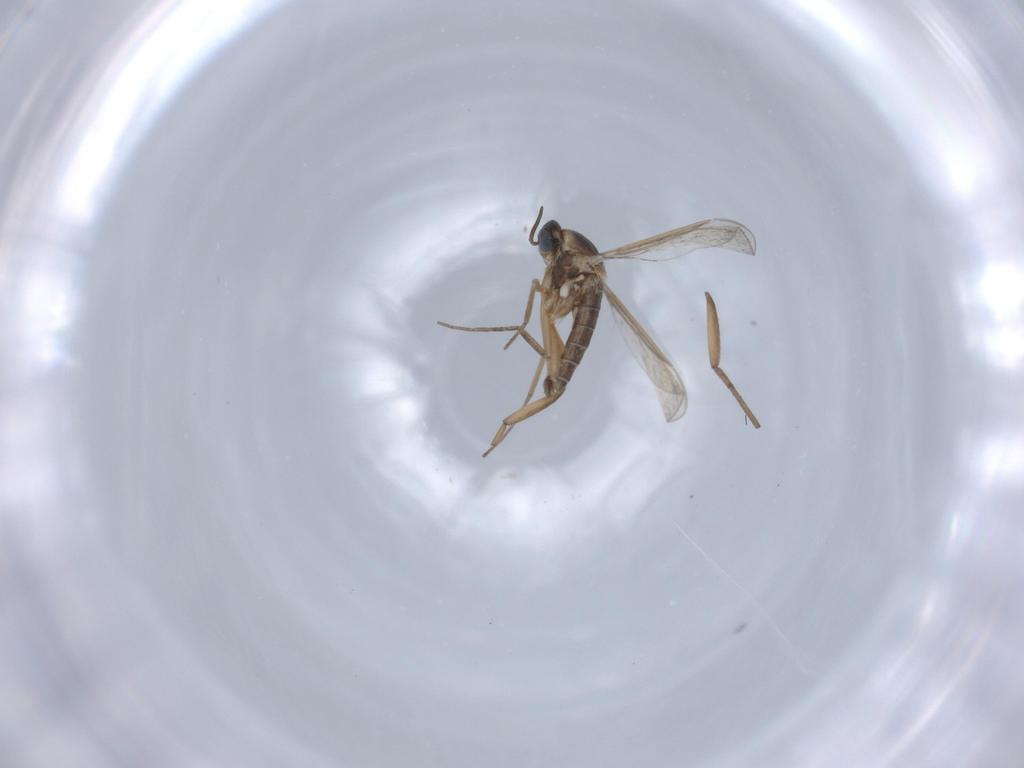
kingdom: Animalia
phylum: Arthropoda
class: Insecta
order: Diptera
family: Cecidomyiidae
